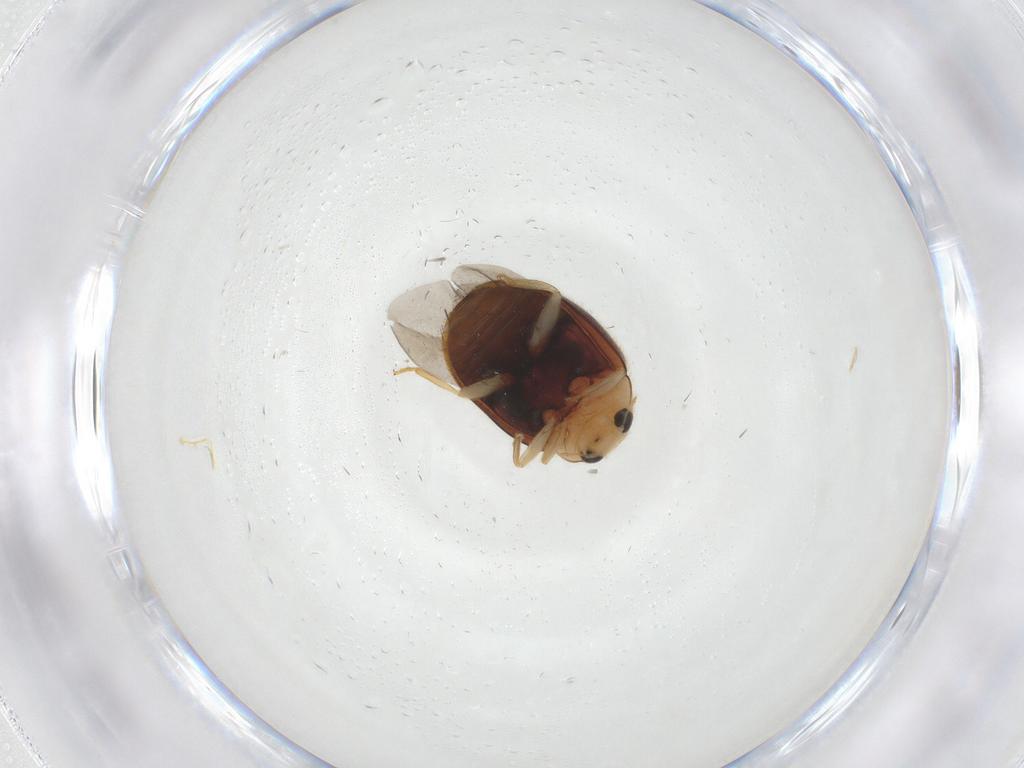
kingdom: Animalia
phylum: Arthropoda
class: Insecta
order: Coleoptera
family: Coccinellidae
